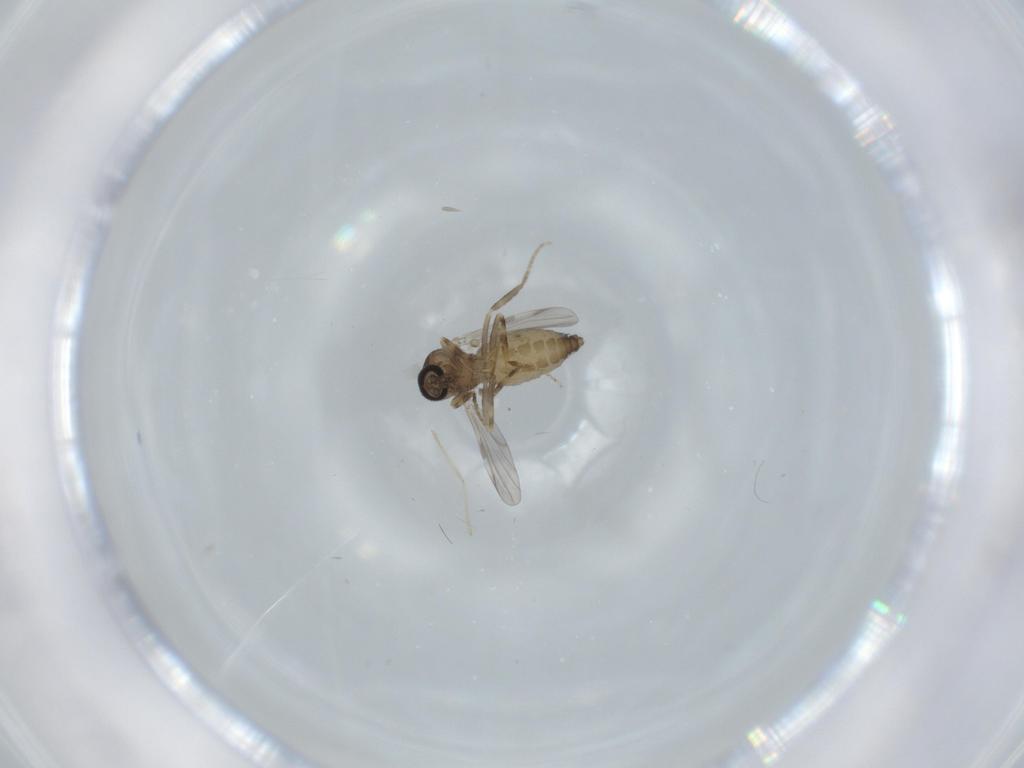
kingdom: Animalia
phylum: Arthropoda
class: Insecta
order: Diptera
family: Ceratopogonidae
